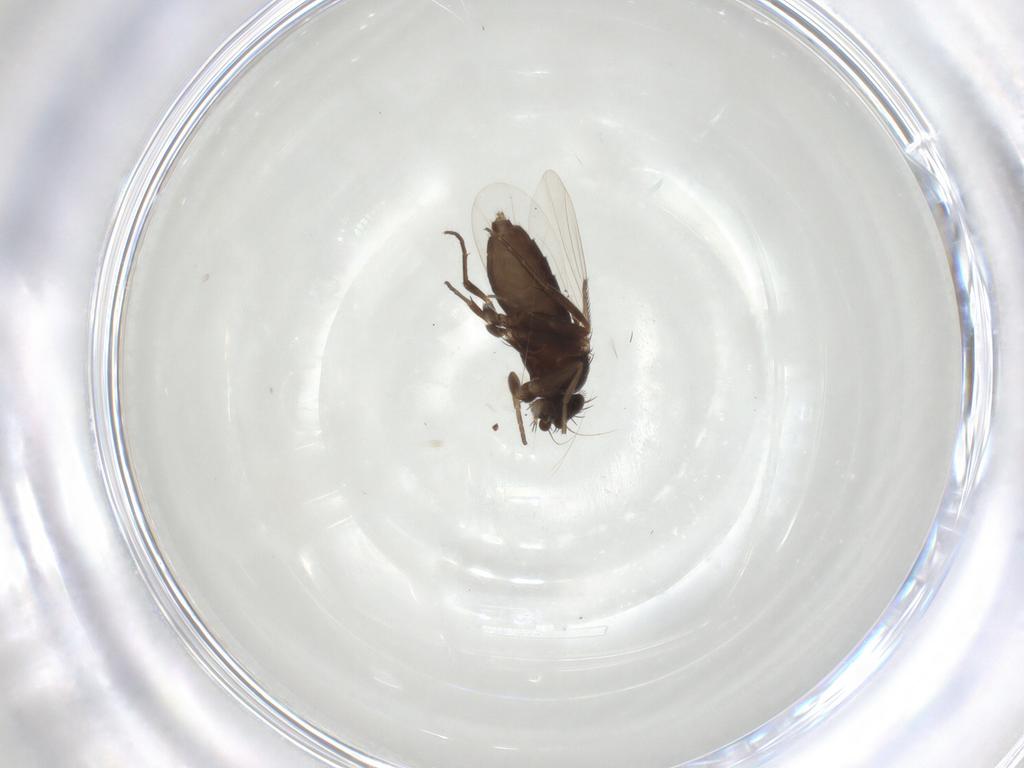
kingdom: Animalia
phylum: Arthropoda
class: Insecta
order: Diptera
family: Phoridae
